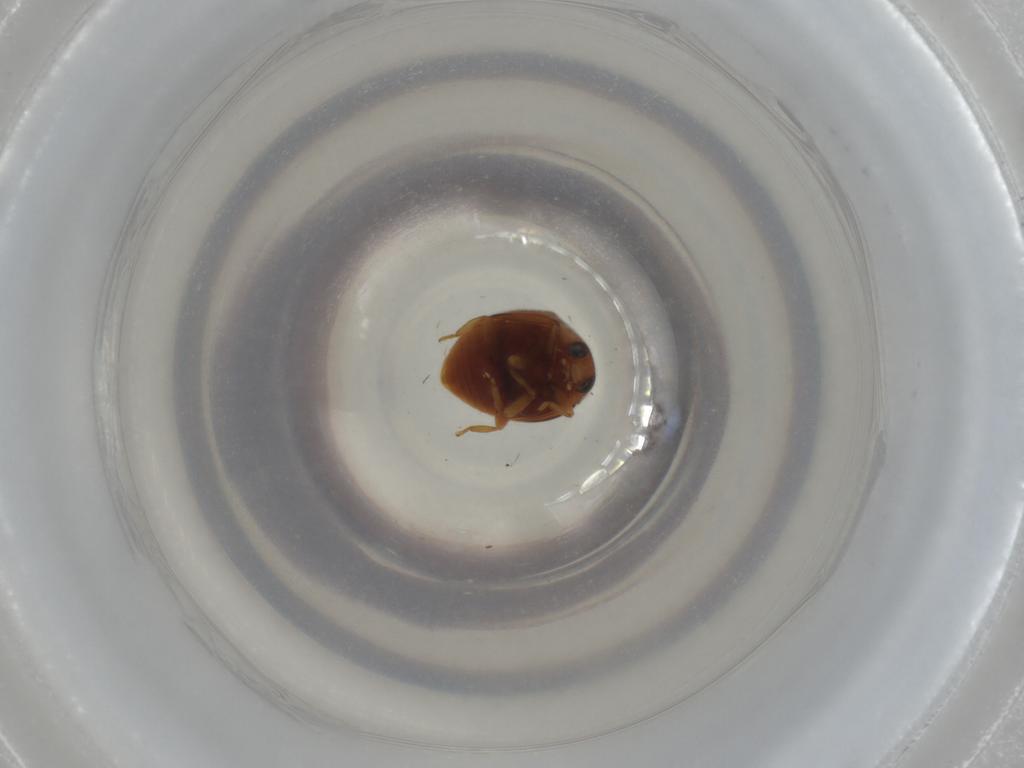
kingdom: Animalia
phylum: Arthropoda
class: Insecta
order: Coleoptera
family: Coccinellidae
